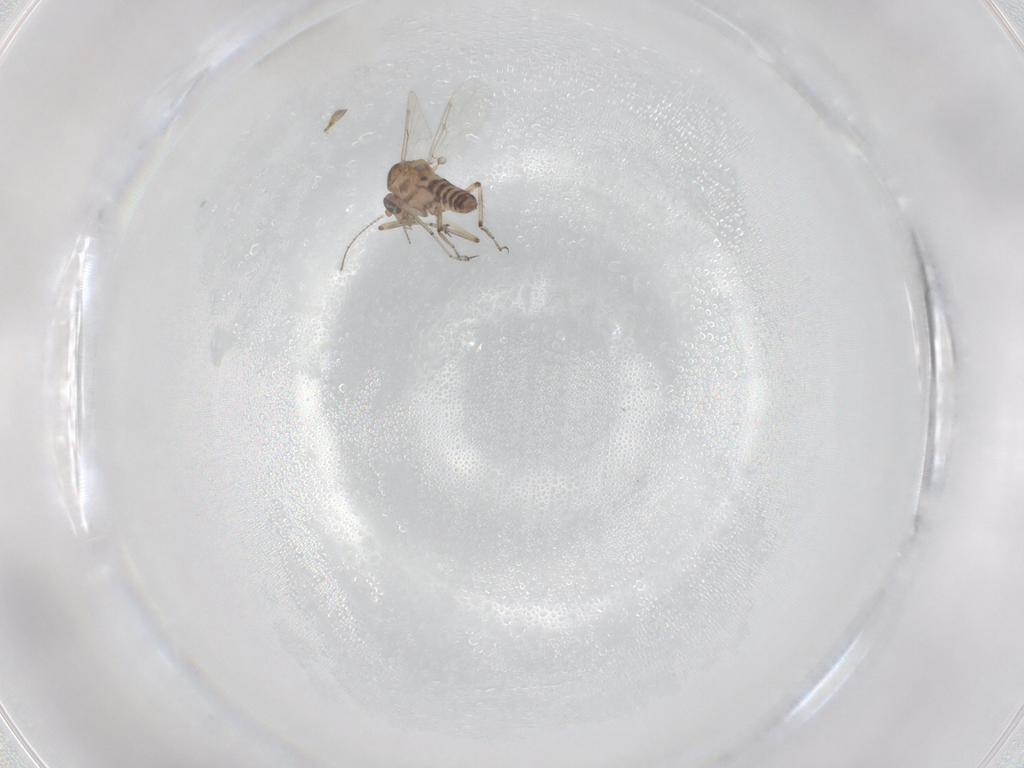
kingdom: Animalia
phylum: Arthropoda
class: Insecta
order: Diptera
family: Ceratopogonidae
